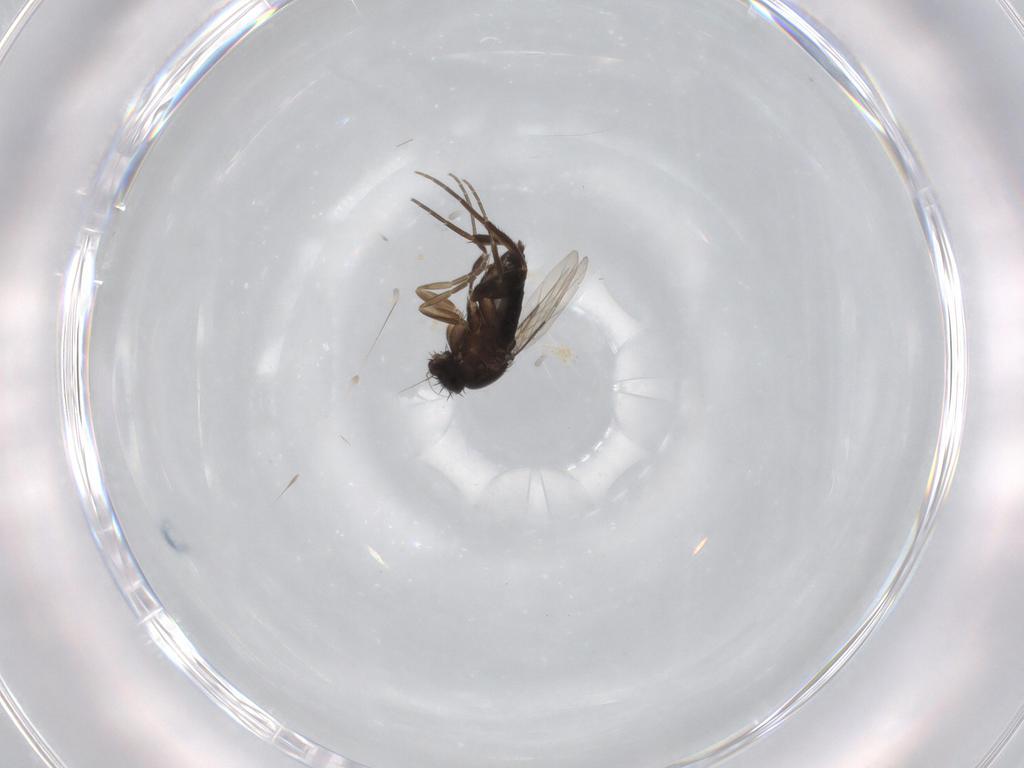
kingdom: Animalia
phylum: Arthropoda
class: Insecta
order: Diptera
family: Phoridae
